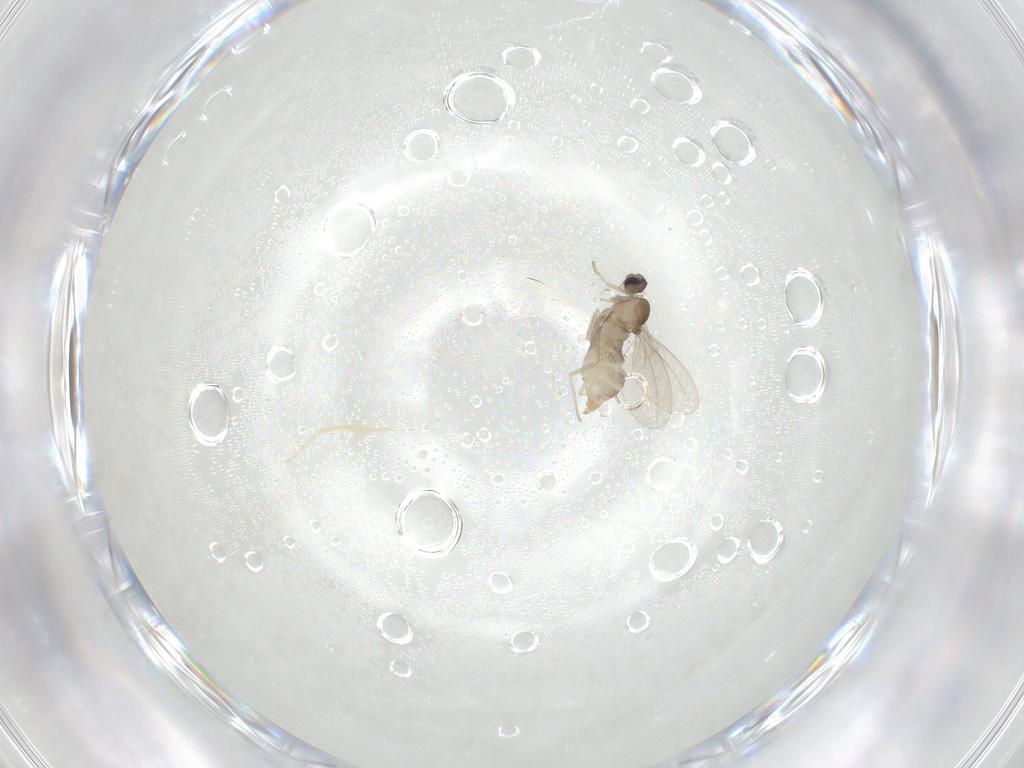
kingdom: Animalia
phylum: Arthropoda
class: Insecta
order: Diptera
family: Chironomidae
